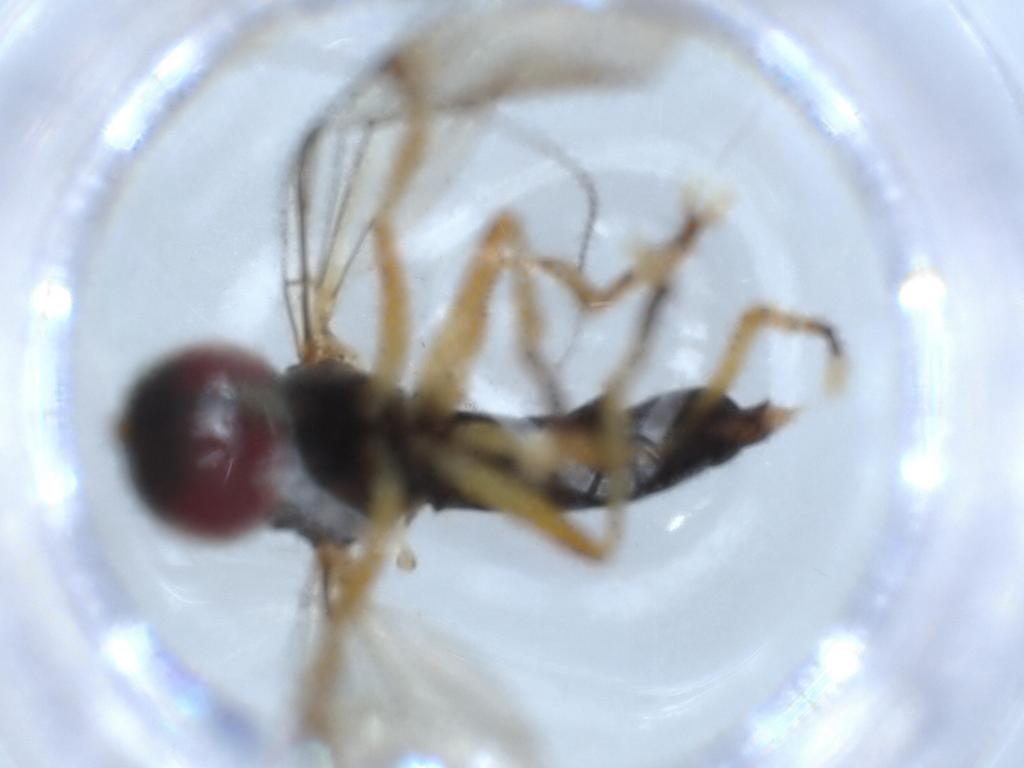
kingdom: Animalia
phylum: Arthropoda
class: Insecta
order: Diptera
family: Pipunculidae
